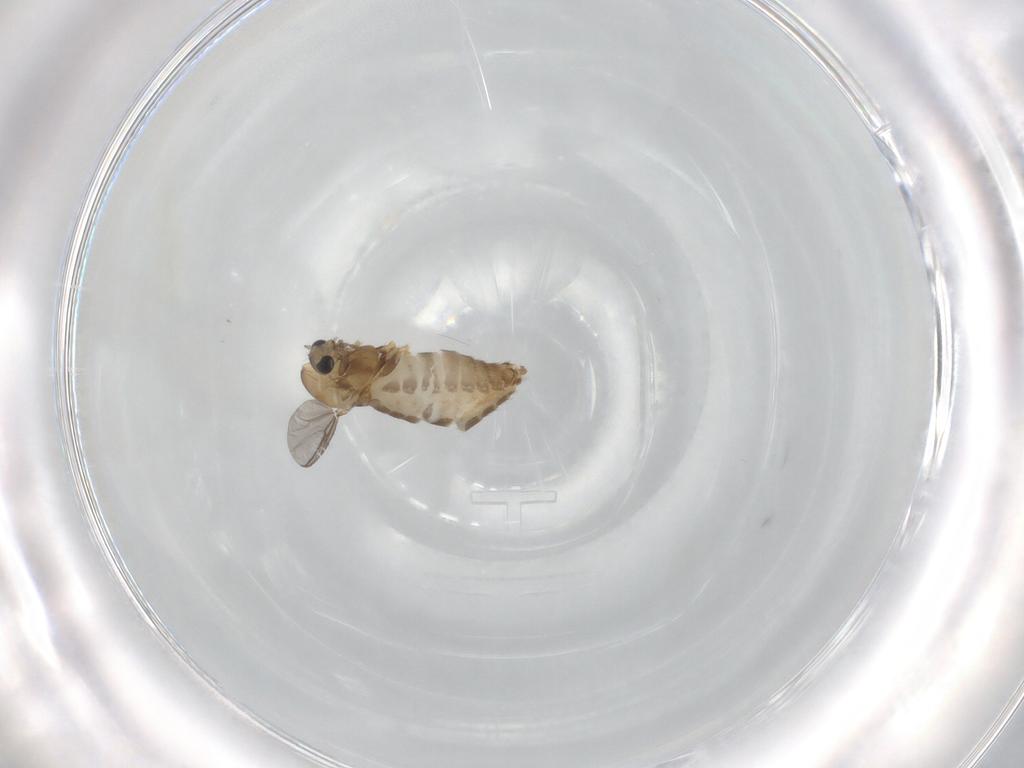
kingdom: Animalia
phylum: Arthropoda
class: Insecta
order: Diptera
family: Chironomidae
